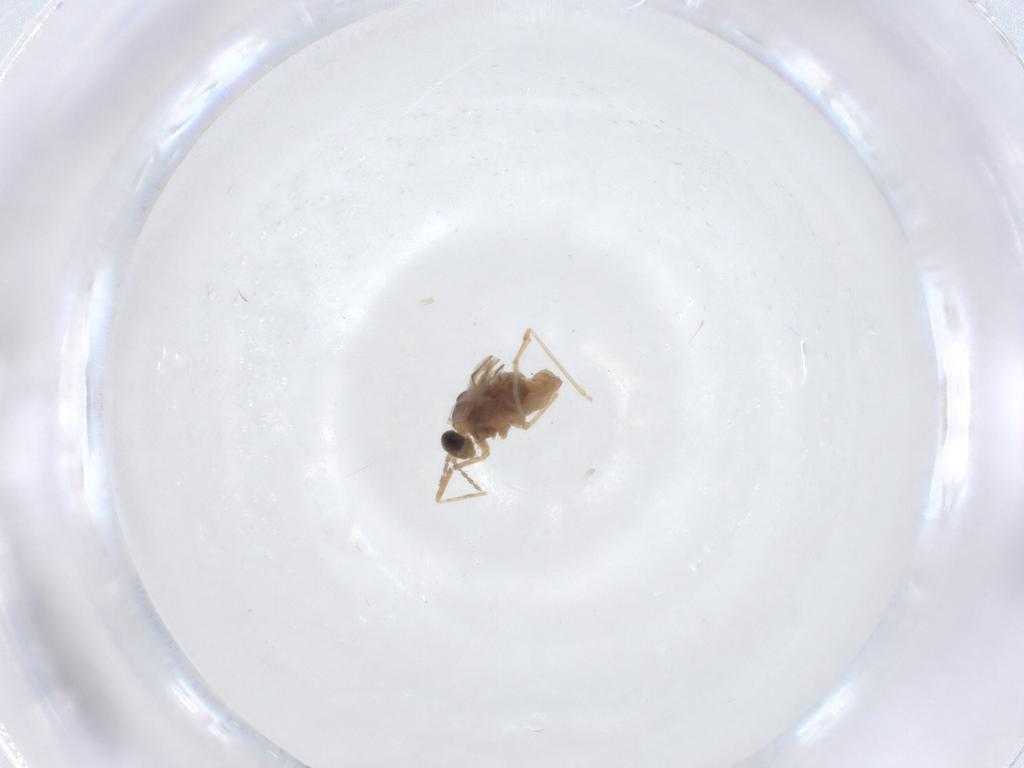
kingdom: Animalia
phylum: Arthropoda
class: Insecta
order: Diptera
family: Cecidomyiidae
